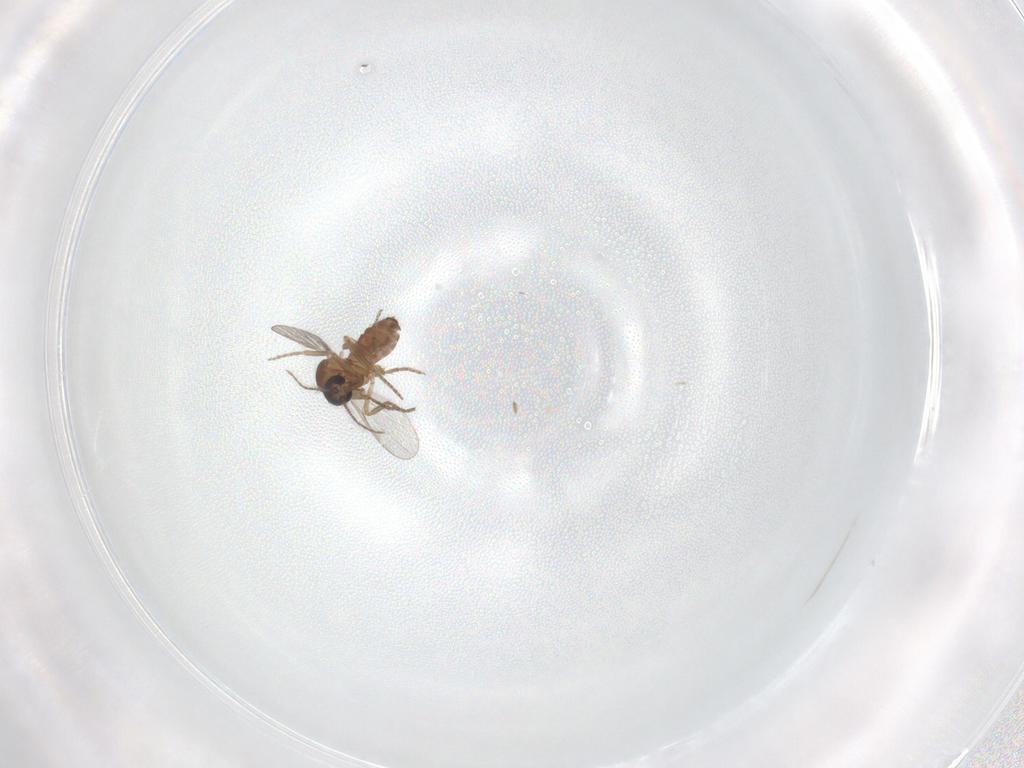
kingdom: Animalia
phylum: Arthropoda
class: Insecta
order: Diptera
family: Ceratopogonidae
